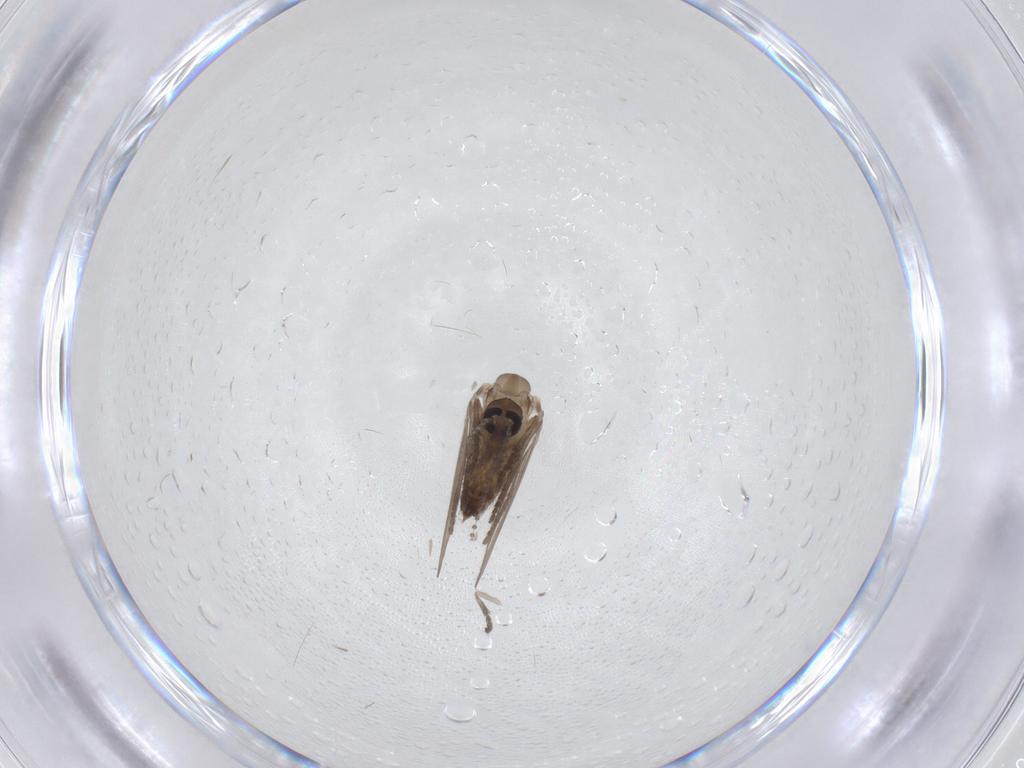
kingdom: Animalia
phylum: Arthropoda
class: Insecta
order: Diptera
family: Psychodidae
